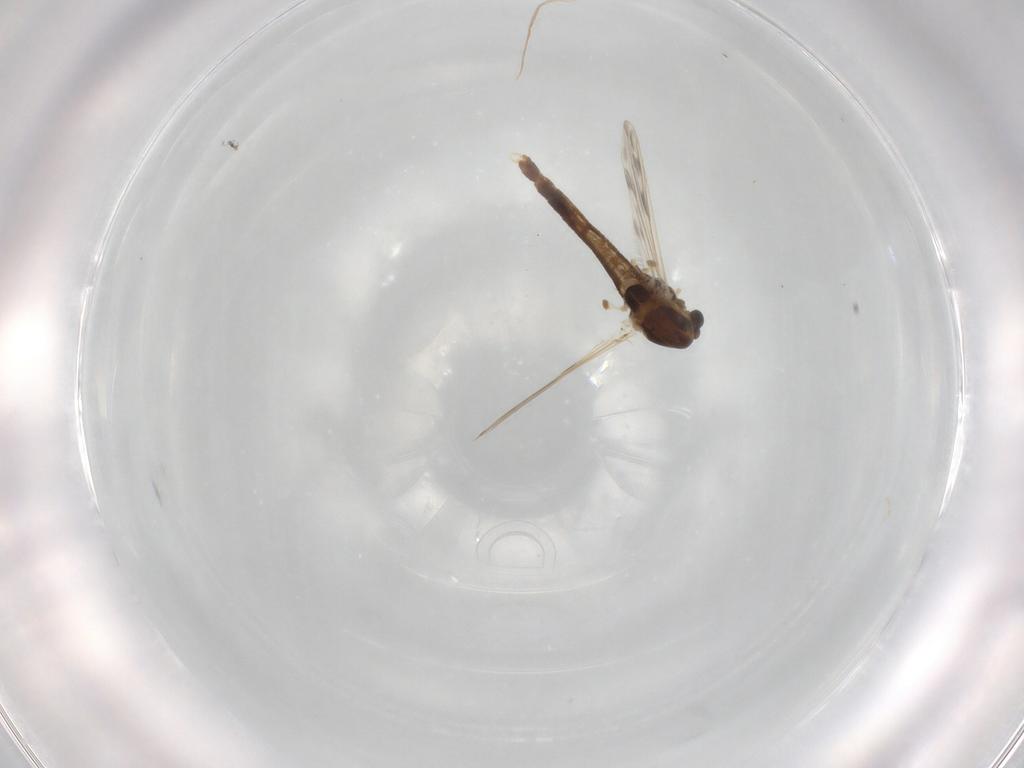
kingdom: Animalia
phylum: Arthropoda
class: Insecta
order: Diptera
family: Chironomidae
